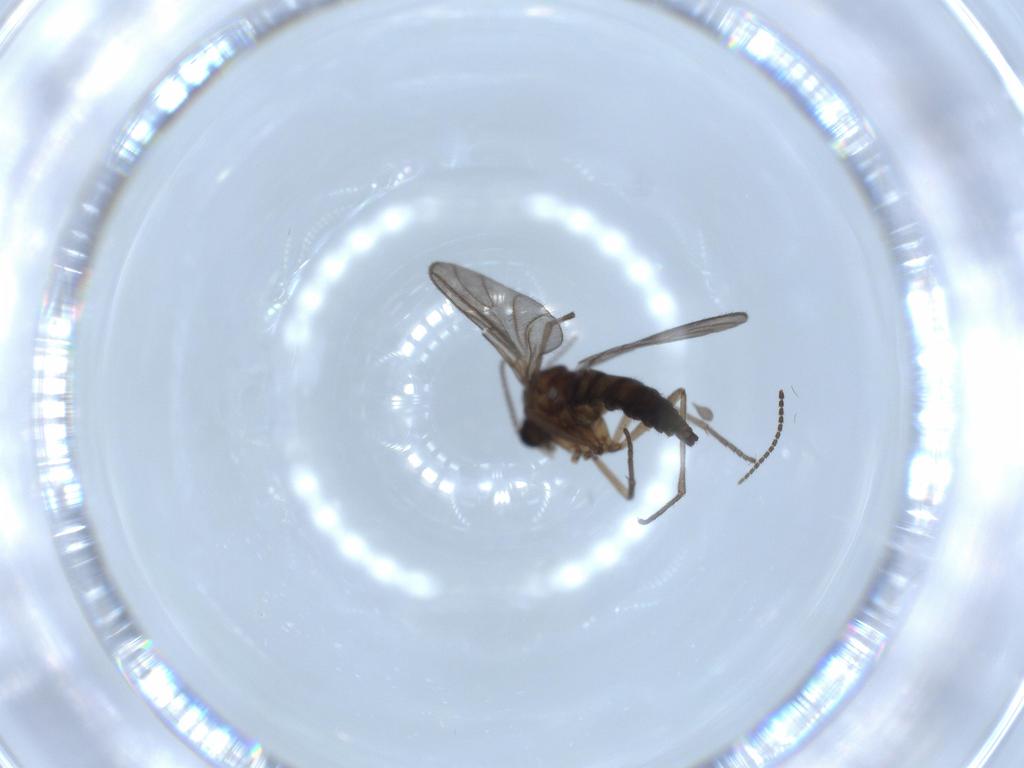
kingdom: Animalia
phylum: Arthropoda
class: Insecta
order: Diptera
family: Sciaridae
